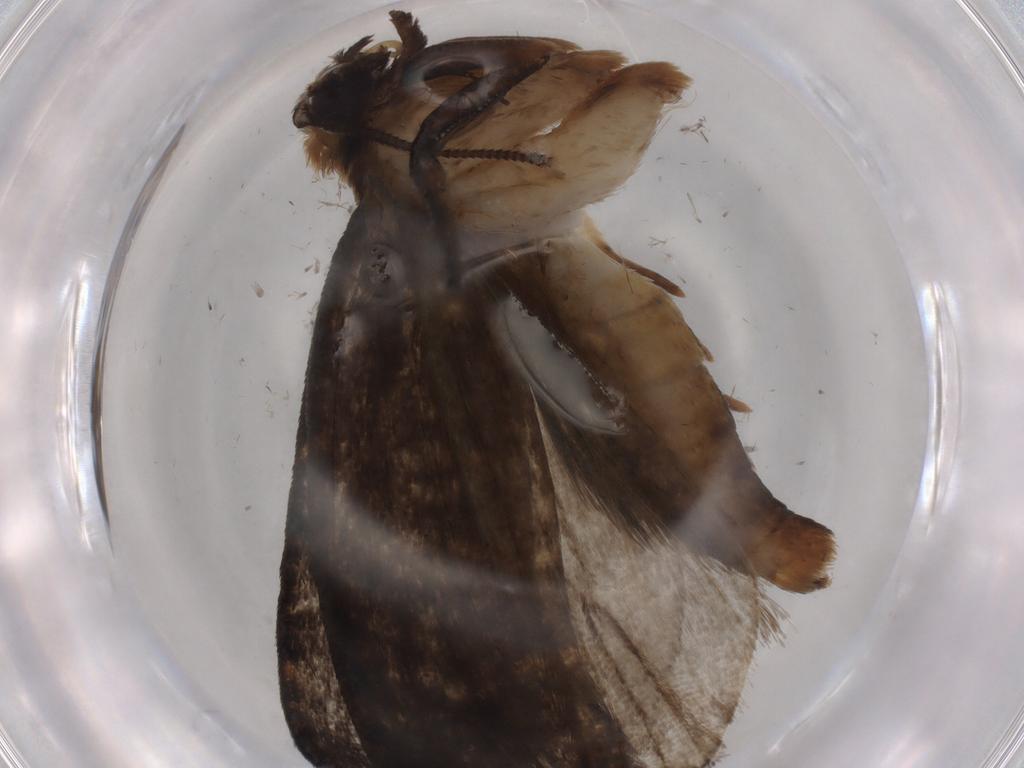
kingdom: Animalia
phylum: Arthropoda
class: Insecta
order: Lepidoptera
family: Tineidae
